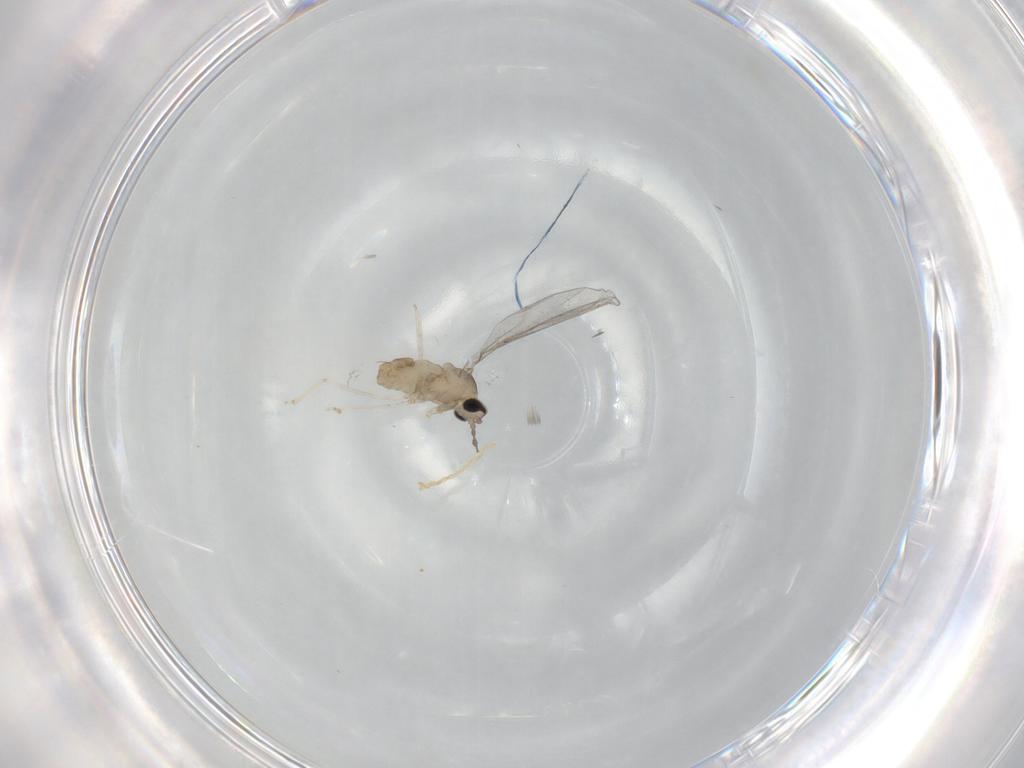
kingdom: Animalia
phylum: Arthropoda
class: Insecta
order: Diptera
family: Cecidomyiidae
